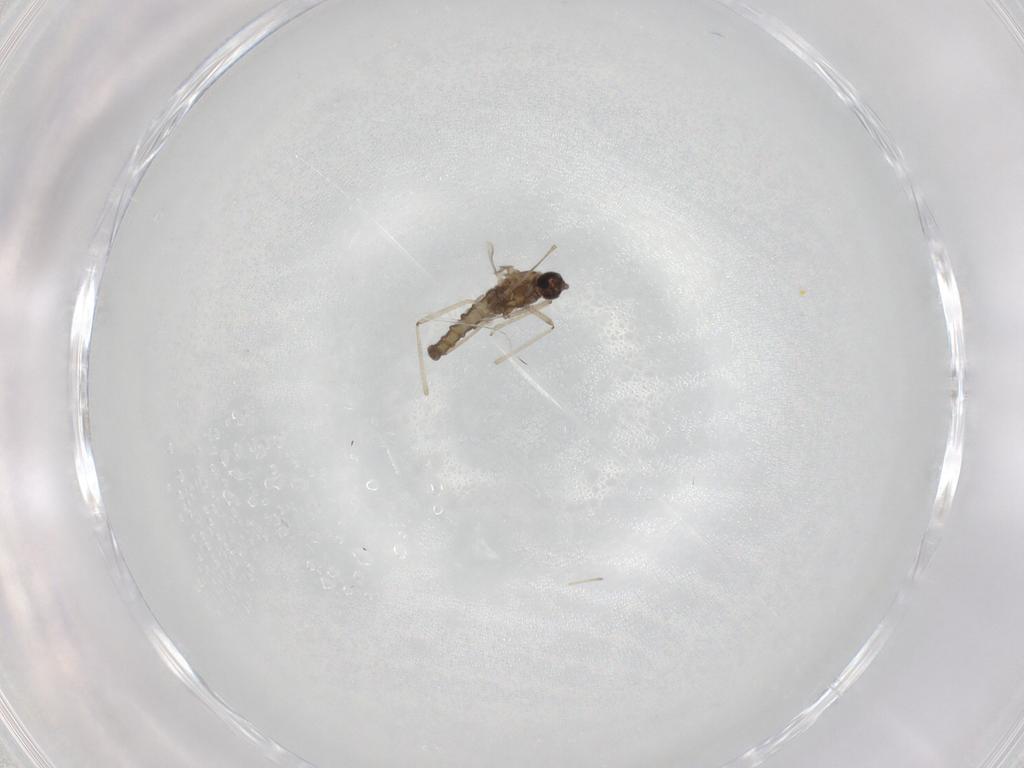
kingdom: Animalia
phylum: Arthropoda
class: Insecta
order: Diptera
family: Cecidomyiidae
